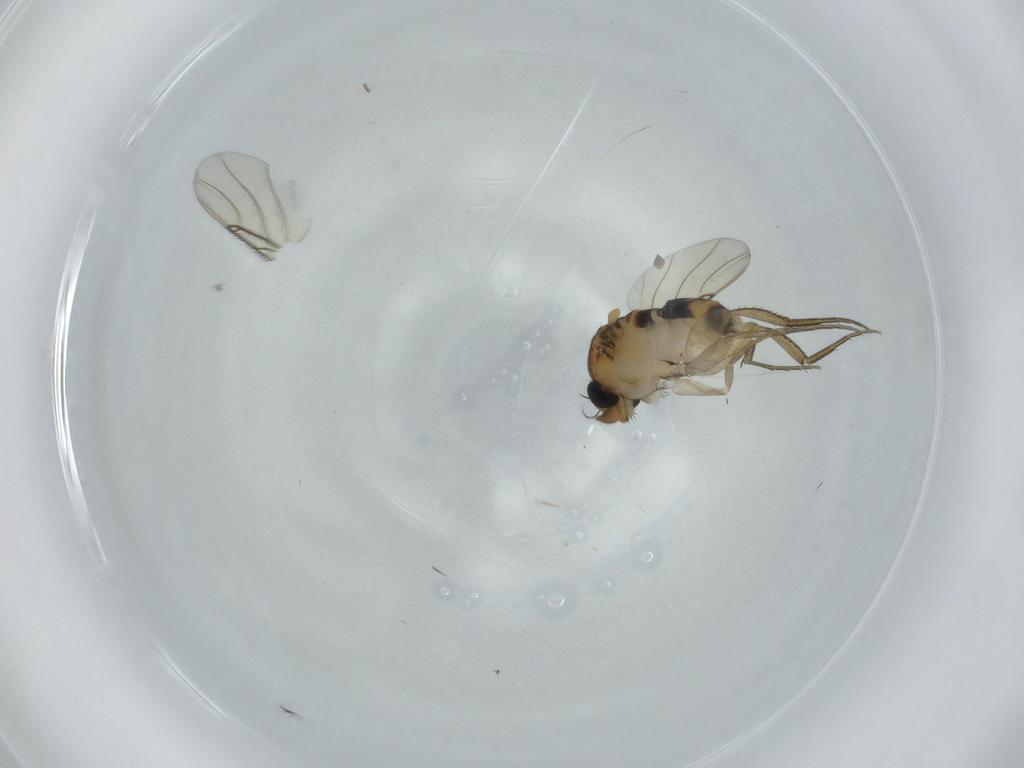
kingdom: Animalia
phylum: Arthropoda
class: Insecta
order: Diptera
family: Phoridae
